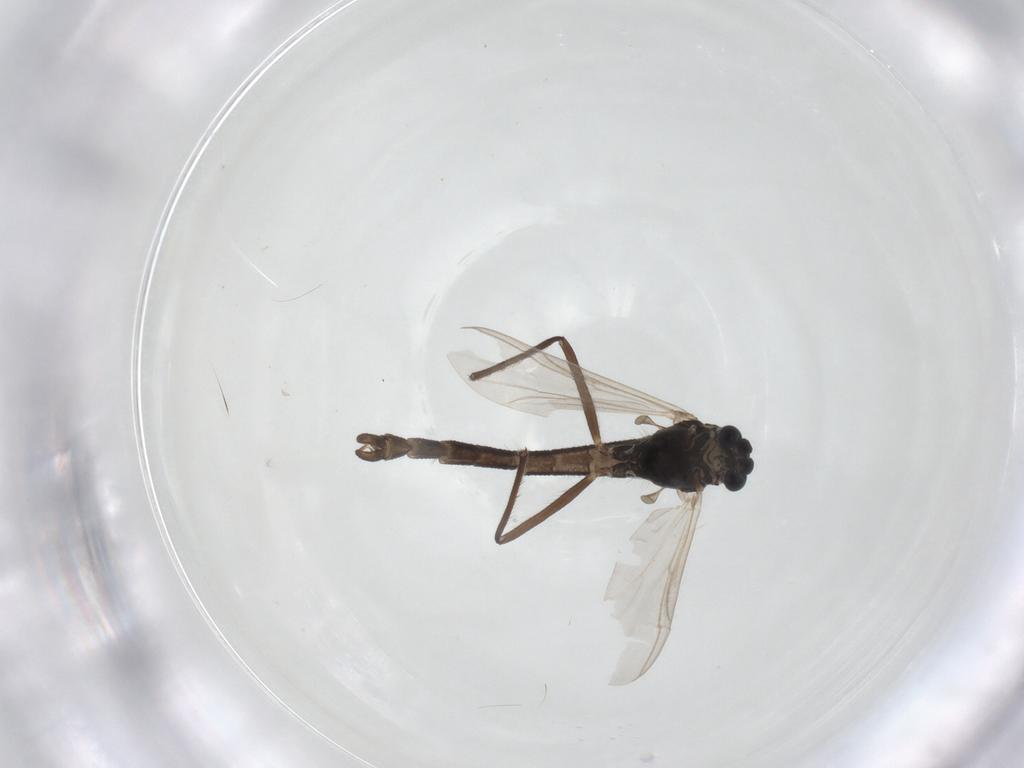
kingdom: Animalia
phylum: Arthropoda
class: Insecta
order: Diptera
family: Chironomidae
